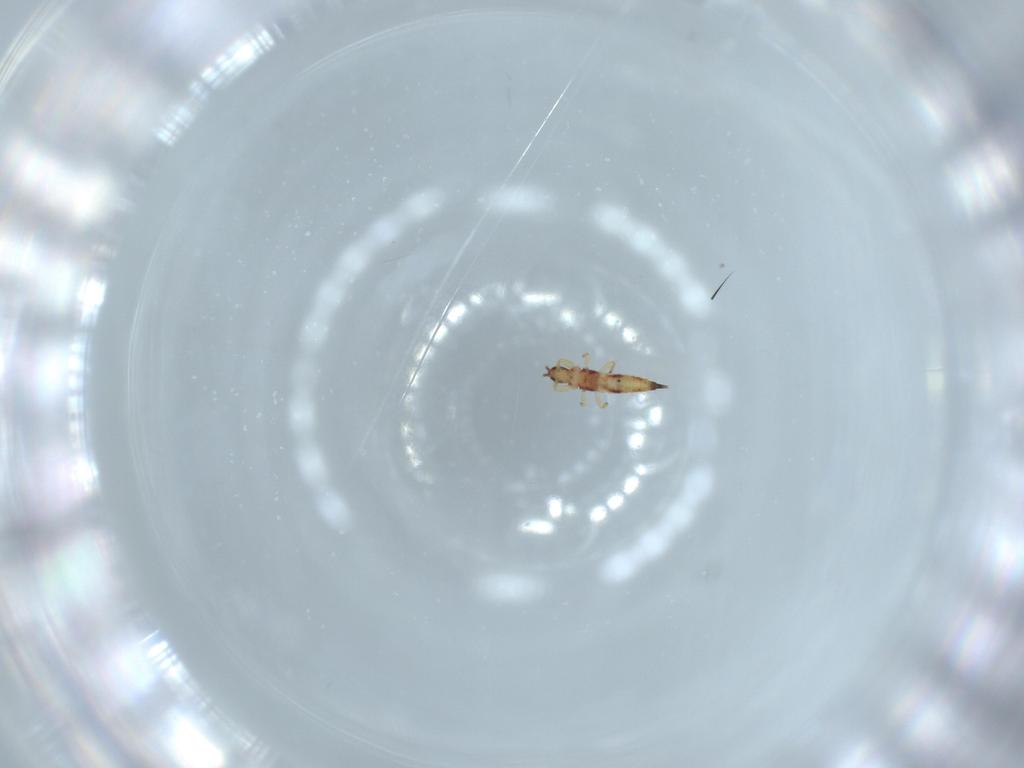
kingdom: Animalia
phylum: Arthropoda
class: Insecta
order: Thysanoptera
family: Phlaeothripidae
